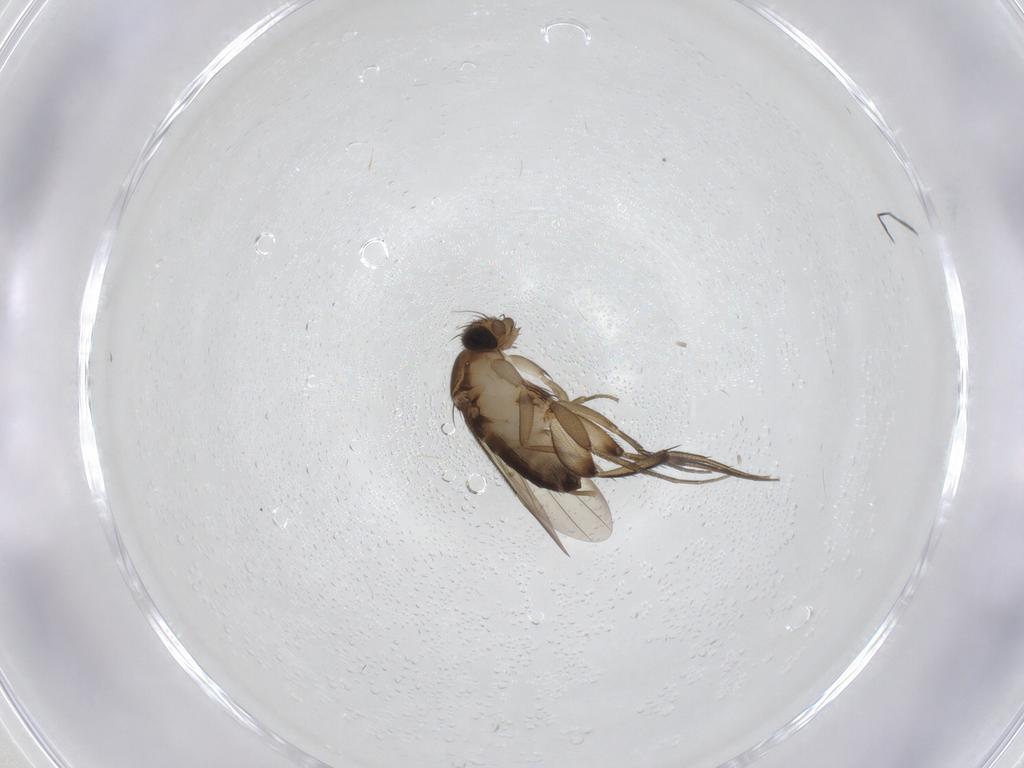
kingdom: Animalia
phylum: Arthropoda
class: Insecta
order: Diptera
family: Phoridae
